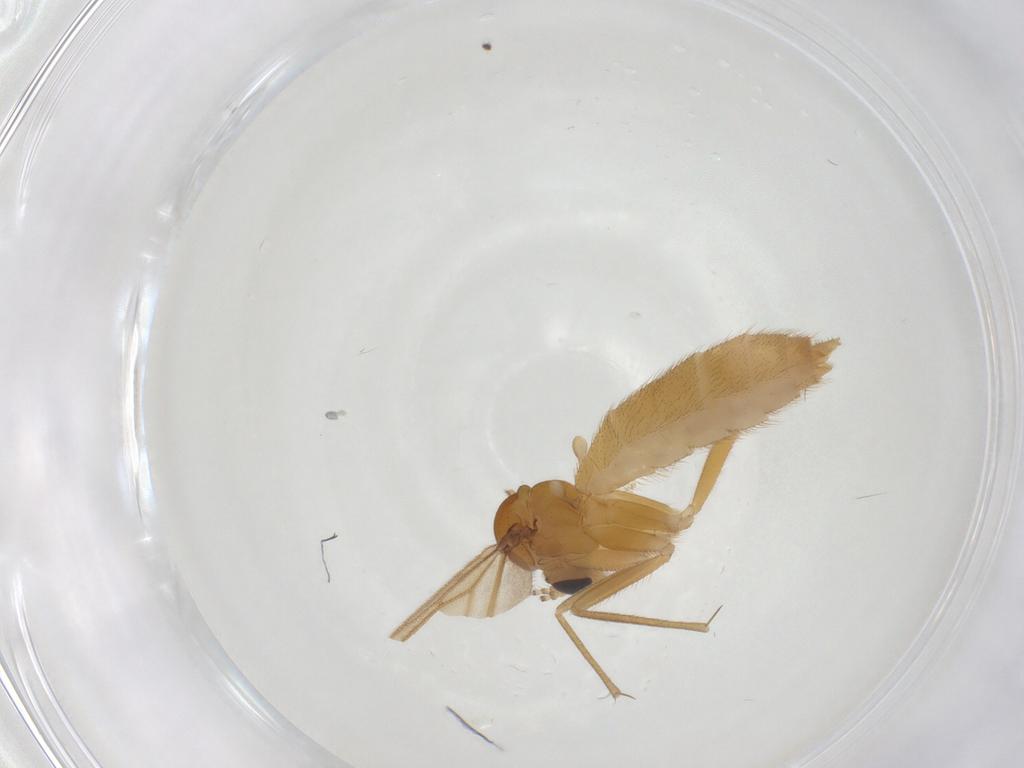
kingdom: Animalia
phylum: Arthropoda
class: Insecta
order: Diptera
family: Mycetophilidae
